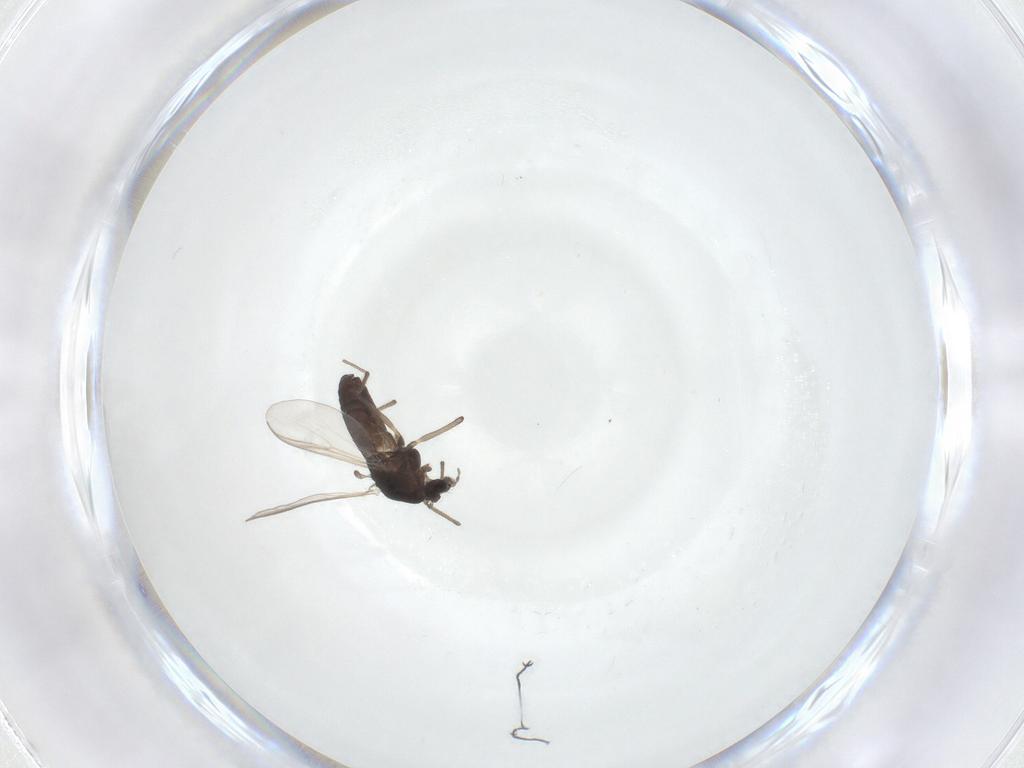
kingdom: Animalia
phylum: Arthropoda
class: Insecta
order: Diptera
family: Chironomidae
